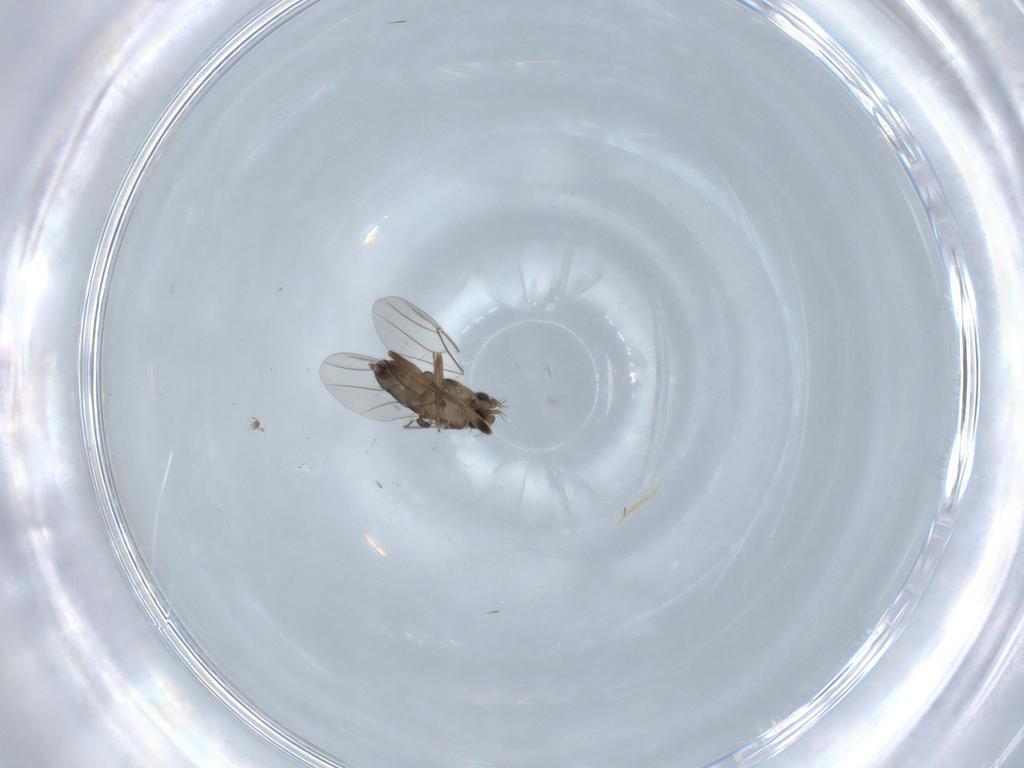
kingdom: Animalia
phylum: Arthropoda
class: Insecta
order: Diptera
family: Phoridae
